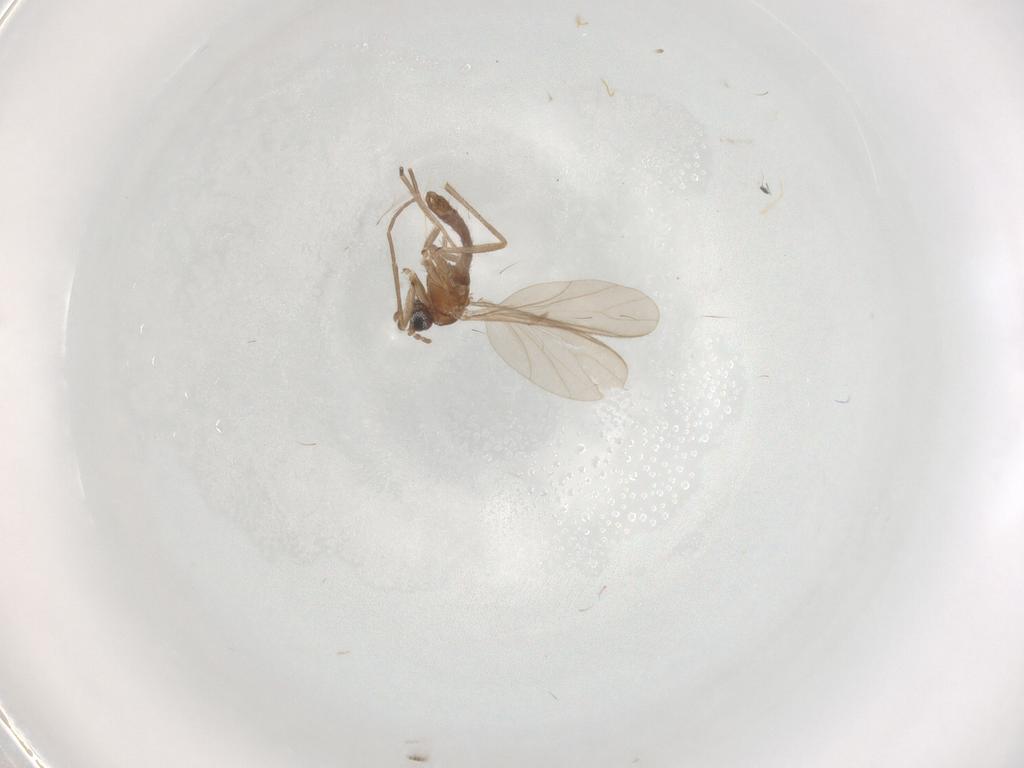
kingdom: Animalia
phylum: Arthropoda
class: Insecta
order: Diptera
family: Sciaridae
